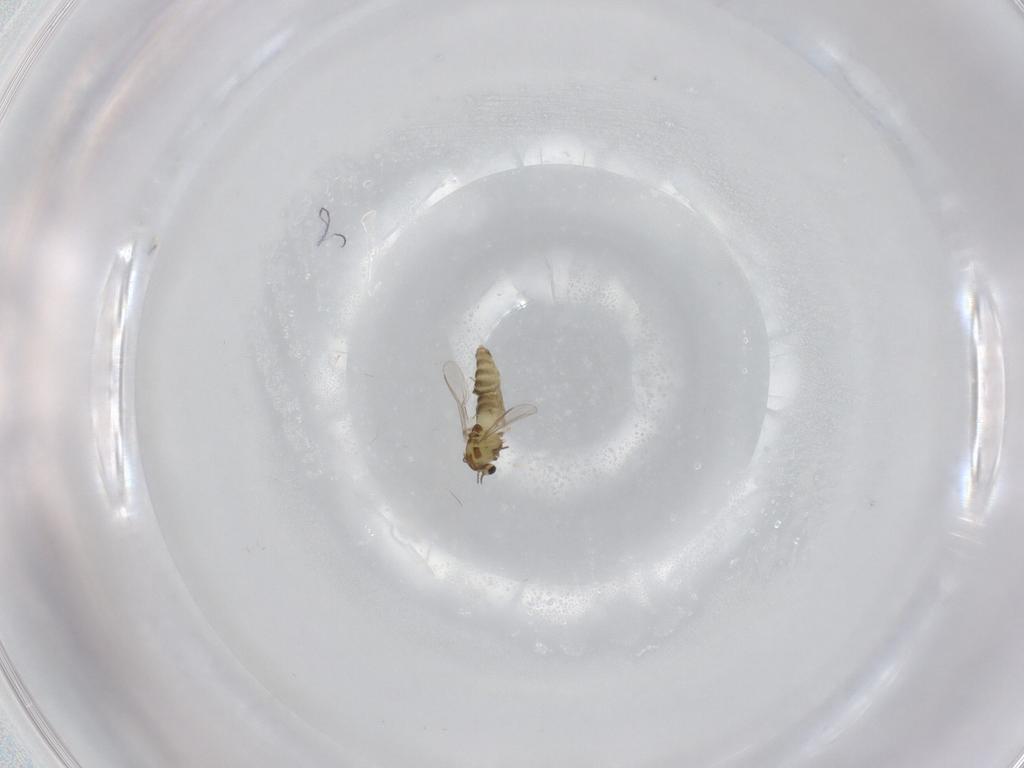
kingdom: Animalia
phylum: Arthropoda
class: Insecta
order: Diptera
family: Chironomidae
